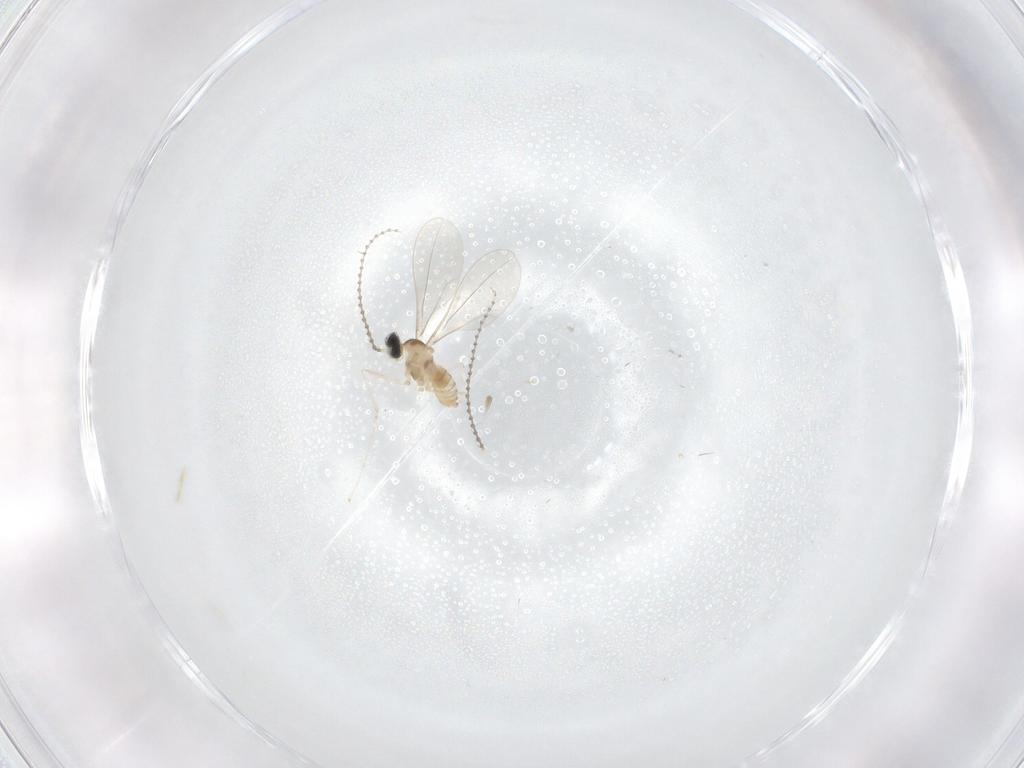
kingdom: Animalia
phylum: Arthropoda
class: Insecta
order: Diptera
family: Cecidomyiidae
